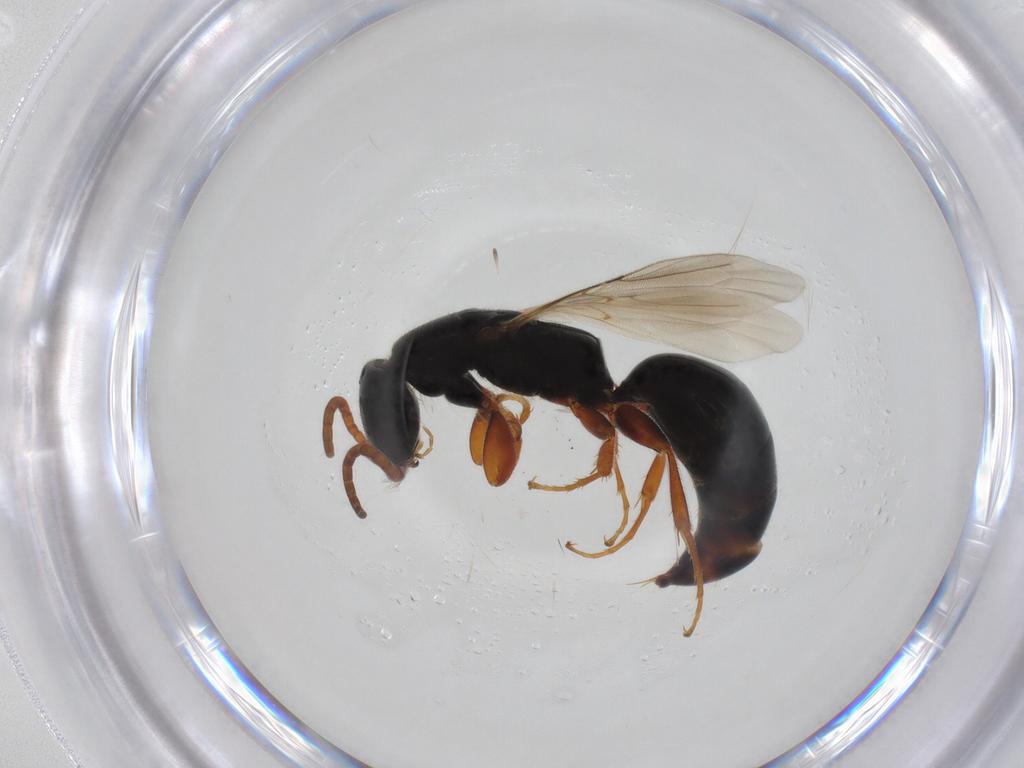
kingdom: Animalia
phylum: Arthropoda
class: Insecta
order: Hymenoptera
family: Bethylidae
